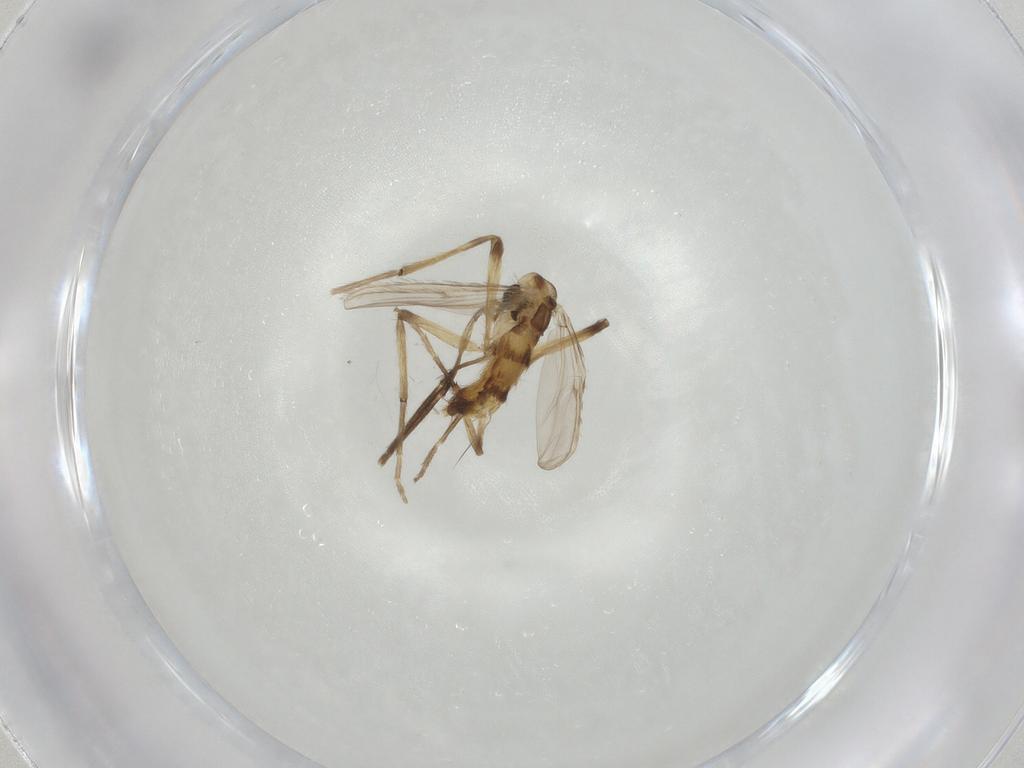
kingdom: Animalia
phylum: Arthropoda
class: Insecta
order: Diptera
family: Chironomidae
